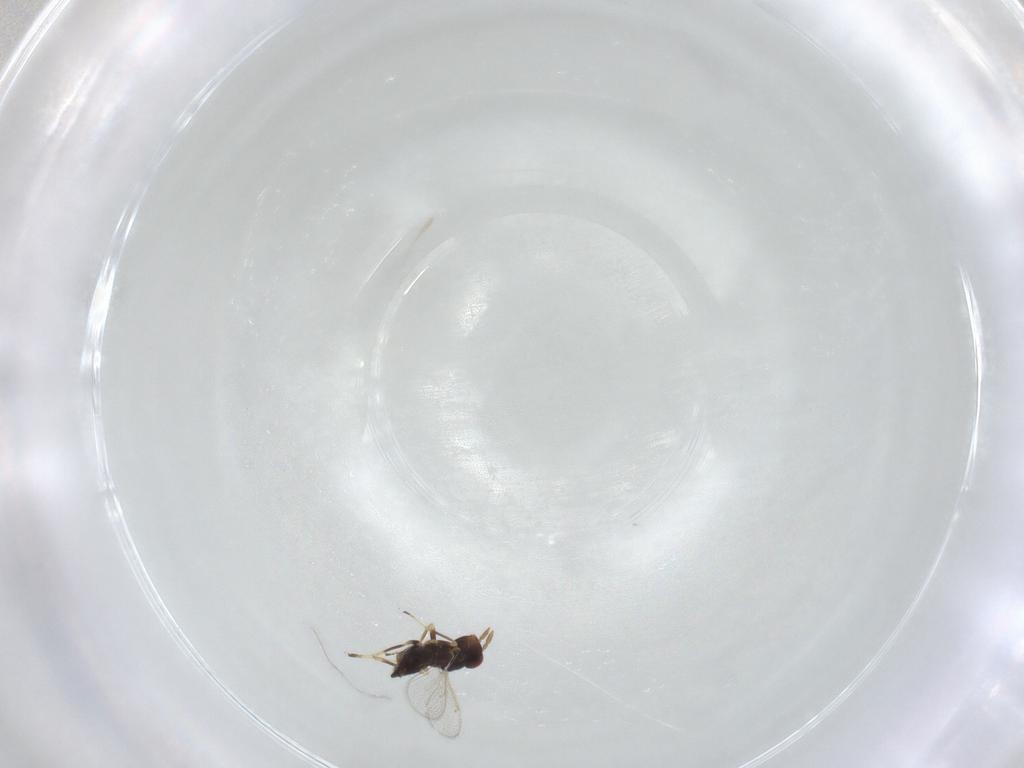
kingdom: Animalia
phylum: Arthropoda
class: Insecta
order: Hymenoptera
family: Eulophidae
